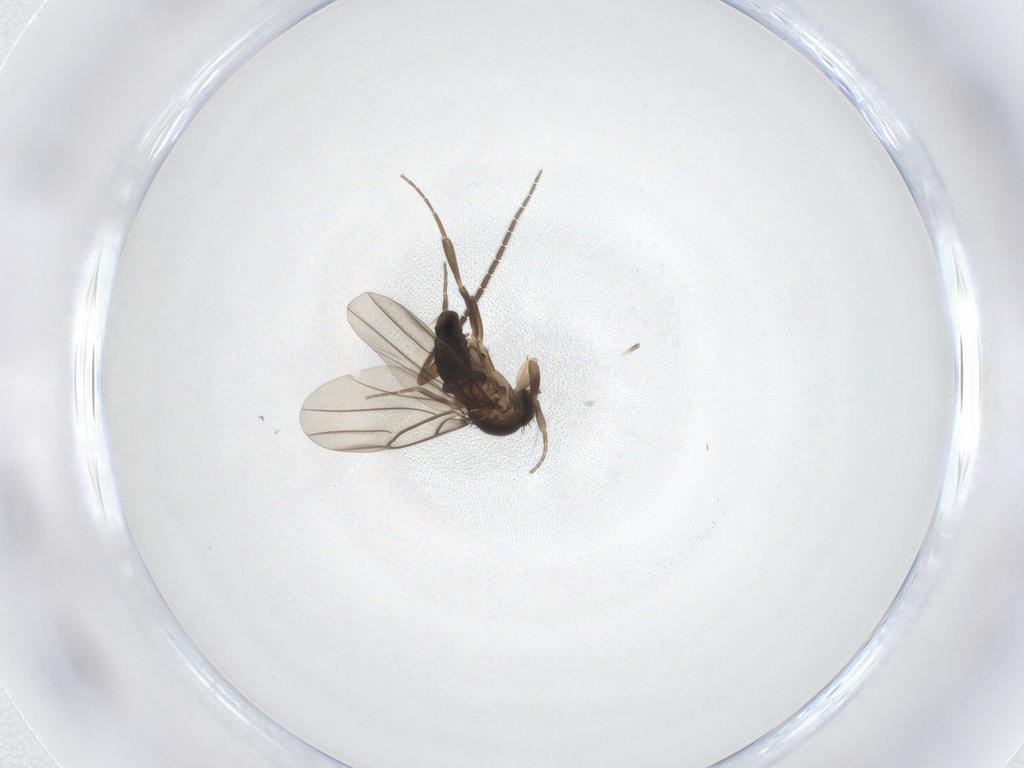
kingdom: Animalia
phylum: Arthropoda
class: Insecta
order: Diptera
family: Phoridae
